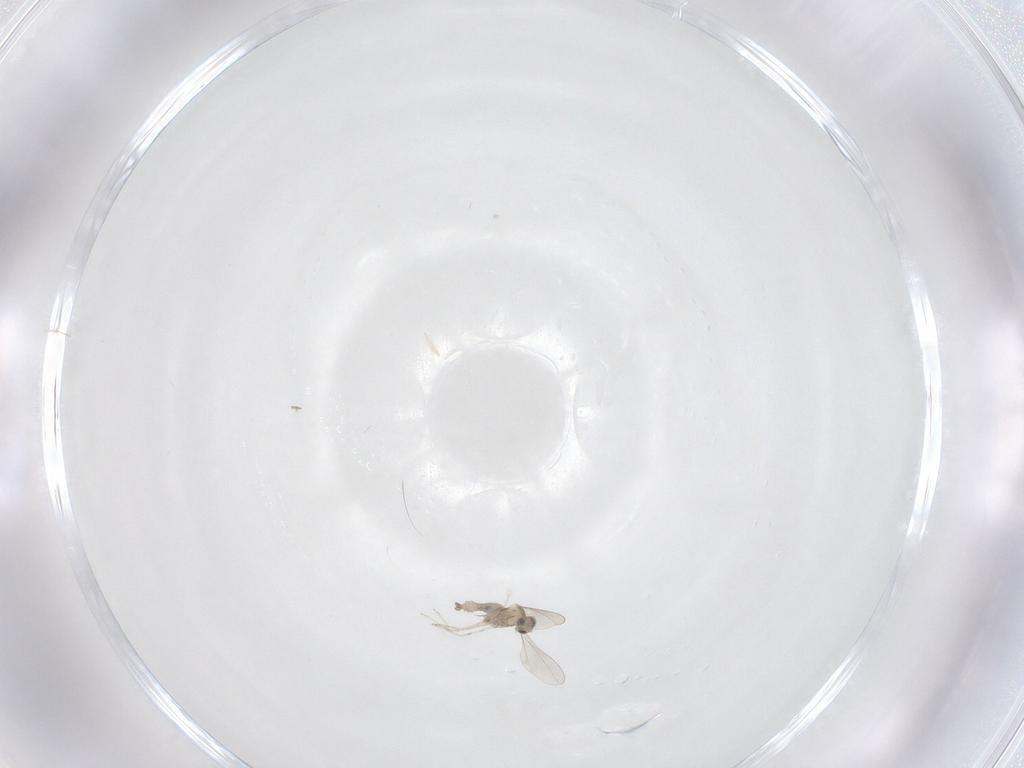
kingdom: Animalia
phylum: Arthropoda
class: Insecta
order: Diptera
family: Cecidomyiidae
